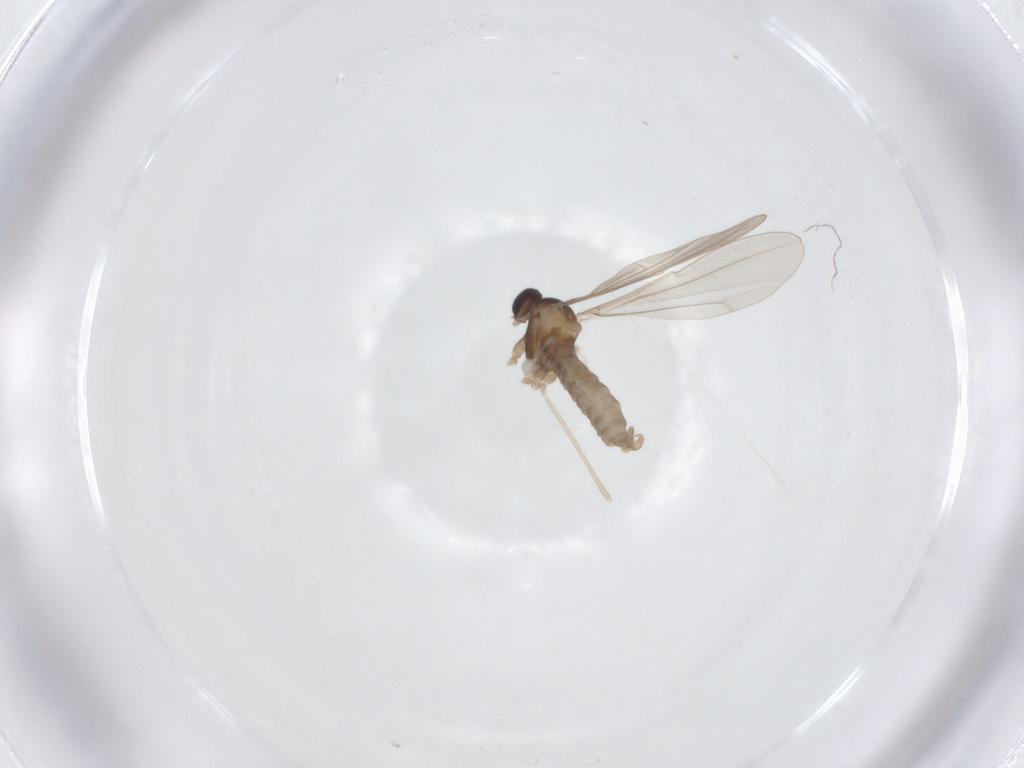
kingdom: Animalia
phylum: Arthropoda
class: Insecta
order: Diptera
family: Cecidomyiidae
